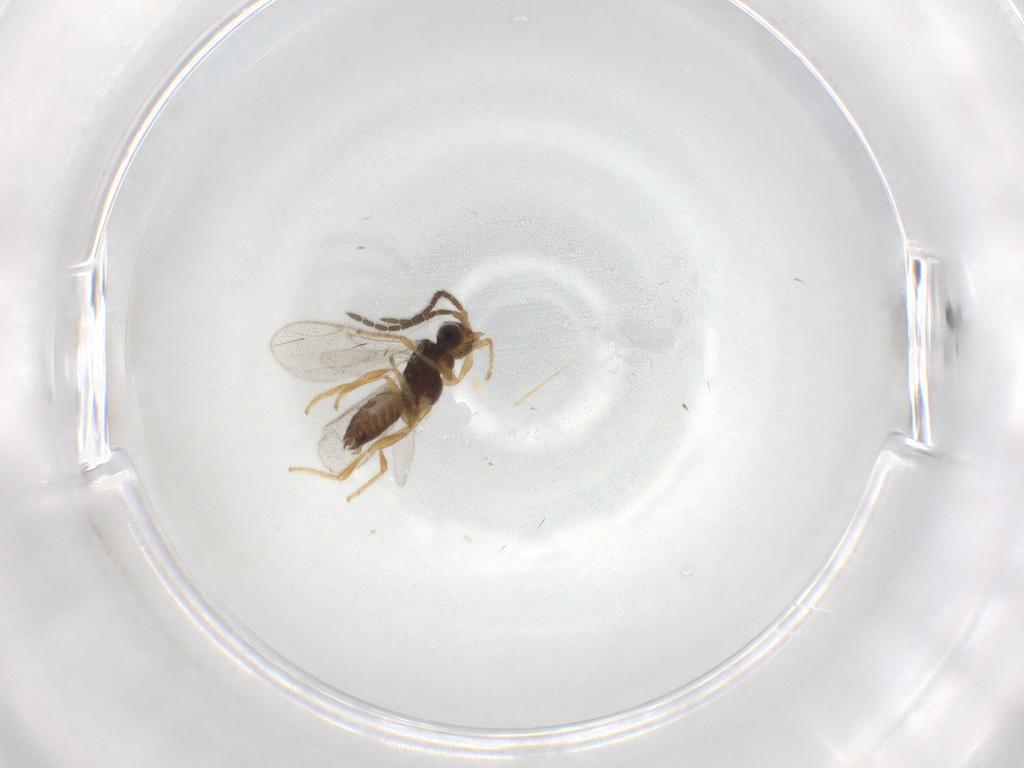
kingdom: Animalia
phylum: Arthropoda
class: Insecta
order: Hymenoptera
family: Dryinidae
